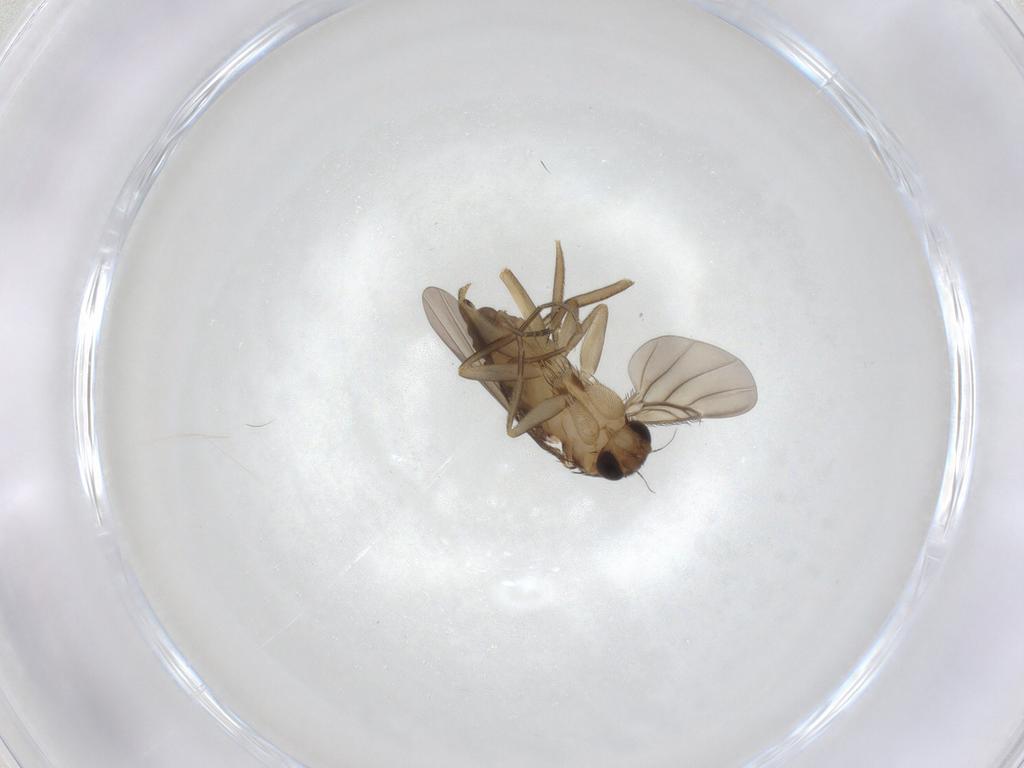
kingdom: Animalia
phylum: Arthropoda
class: Insecta
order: Diptera
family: Phoridae
